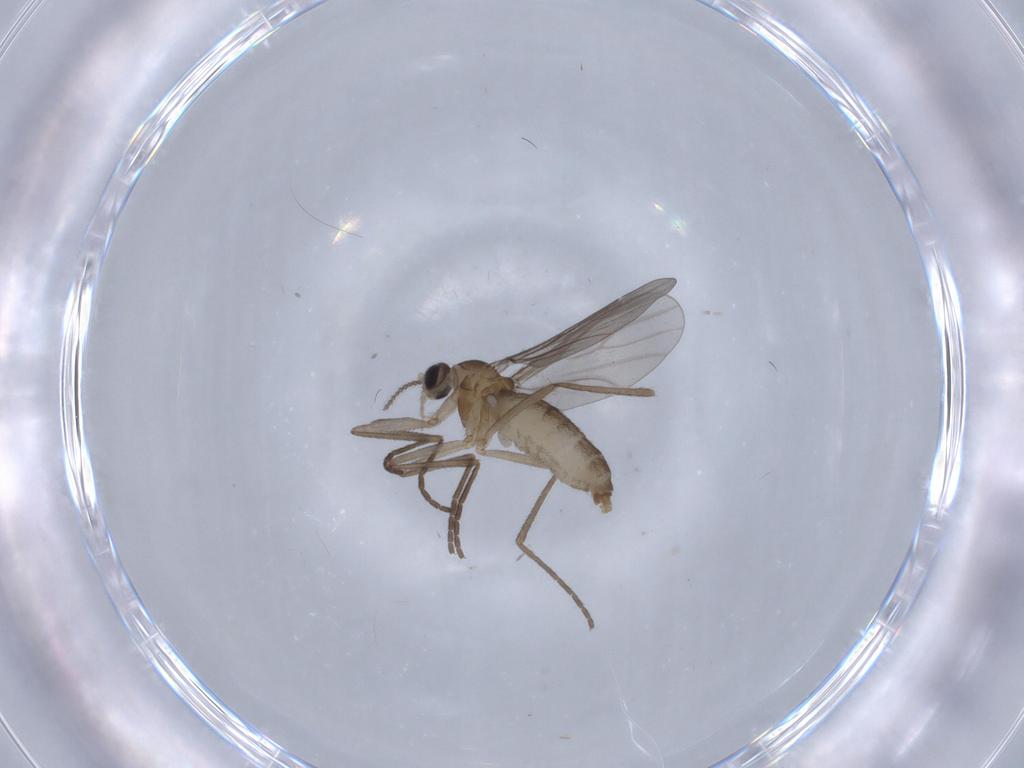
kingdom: Animalia
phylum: Arthropoda
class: Insecta
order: Diptera
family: Cecidomyiidae
